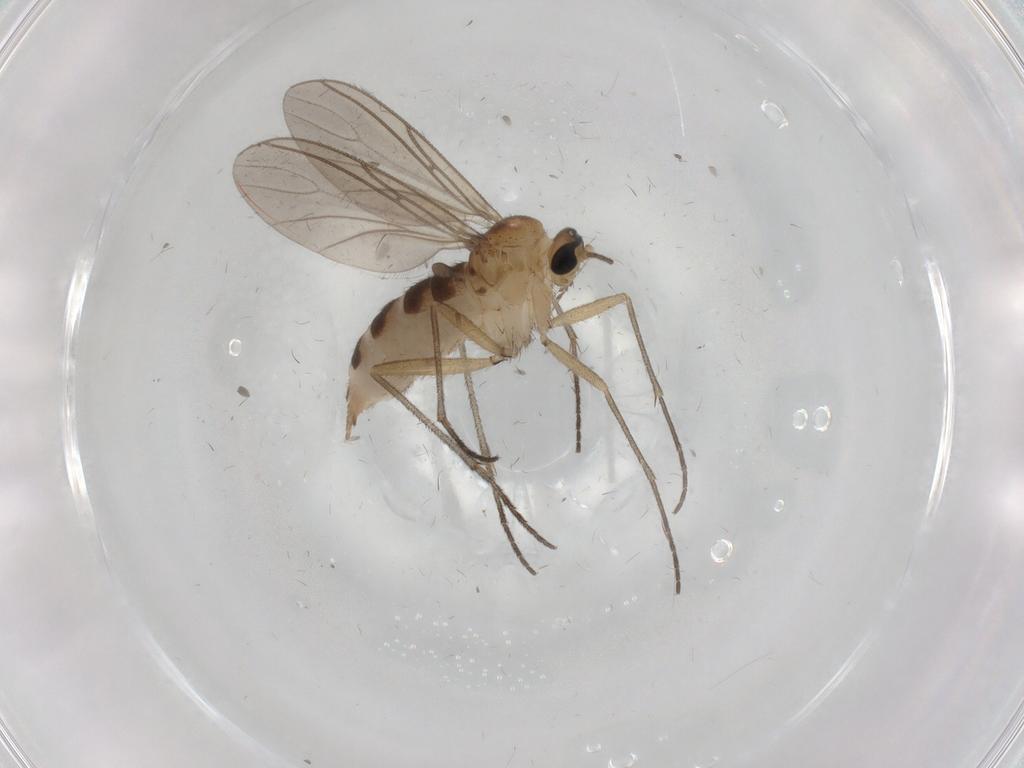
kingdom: Animalia
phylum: Arthropoda
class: Insecta
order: Diptera
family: Sciaridae
